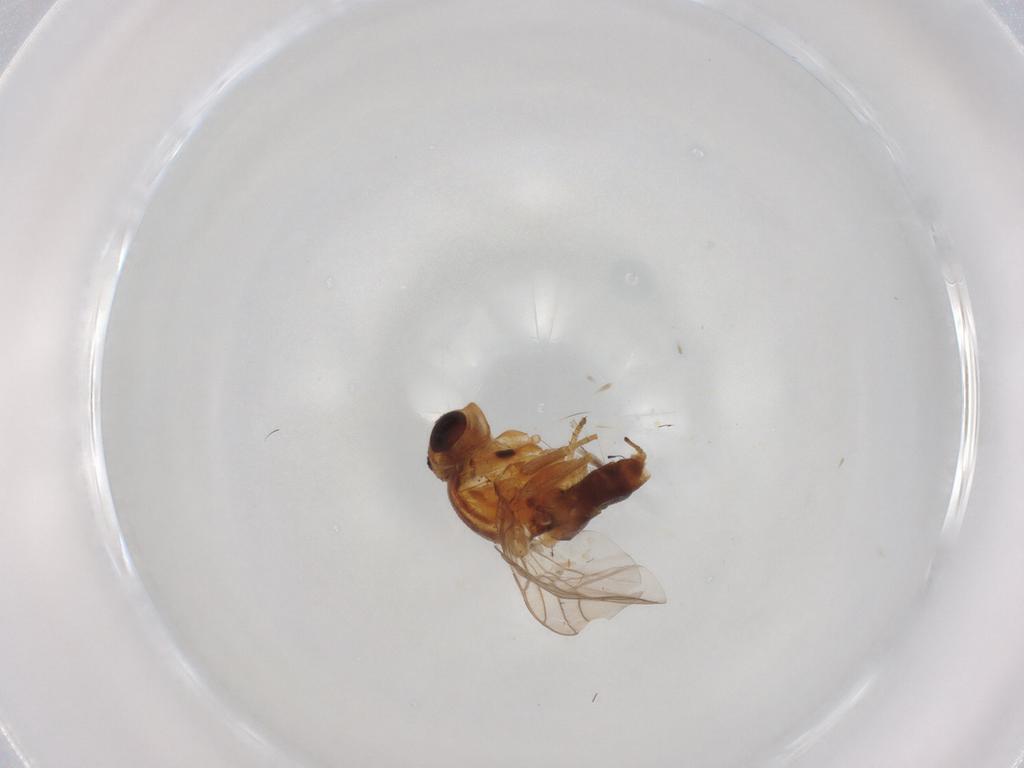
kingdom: Animalia
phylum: Arthropoda
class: Insecta
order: Diptera
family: Chloropidae
